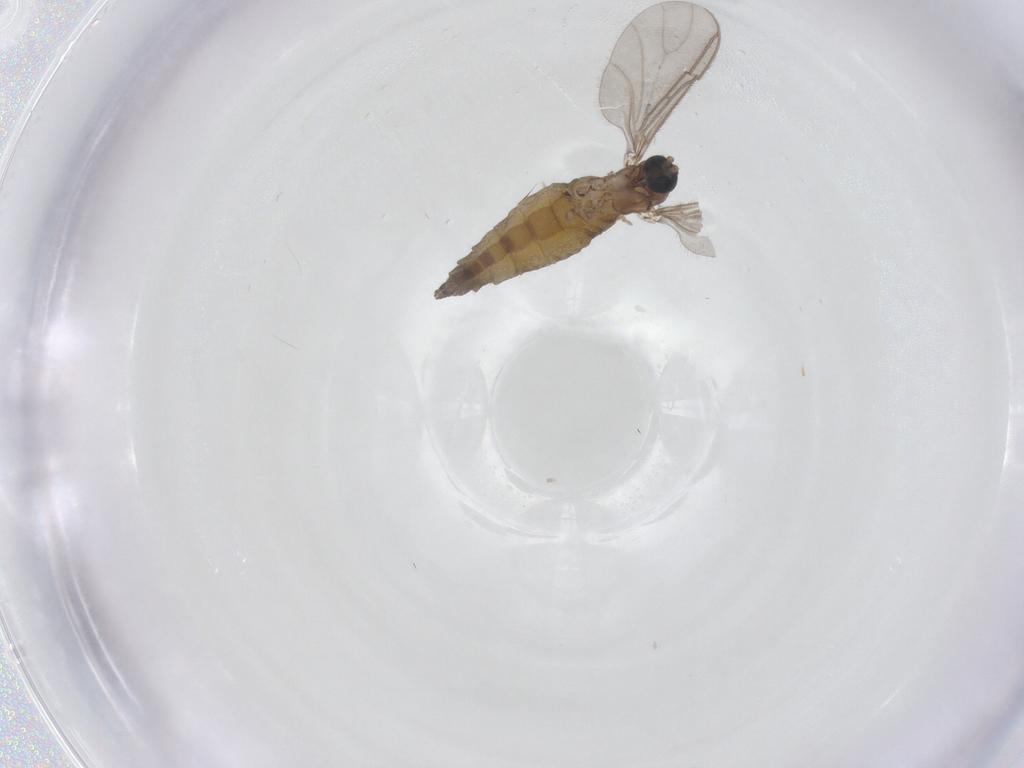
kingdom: Animalia
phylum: Arthropoda
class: Insecta
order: Diptera
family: Sciaridae
